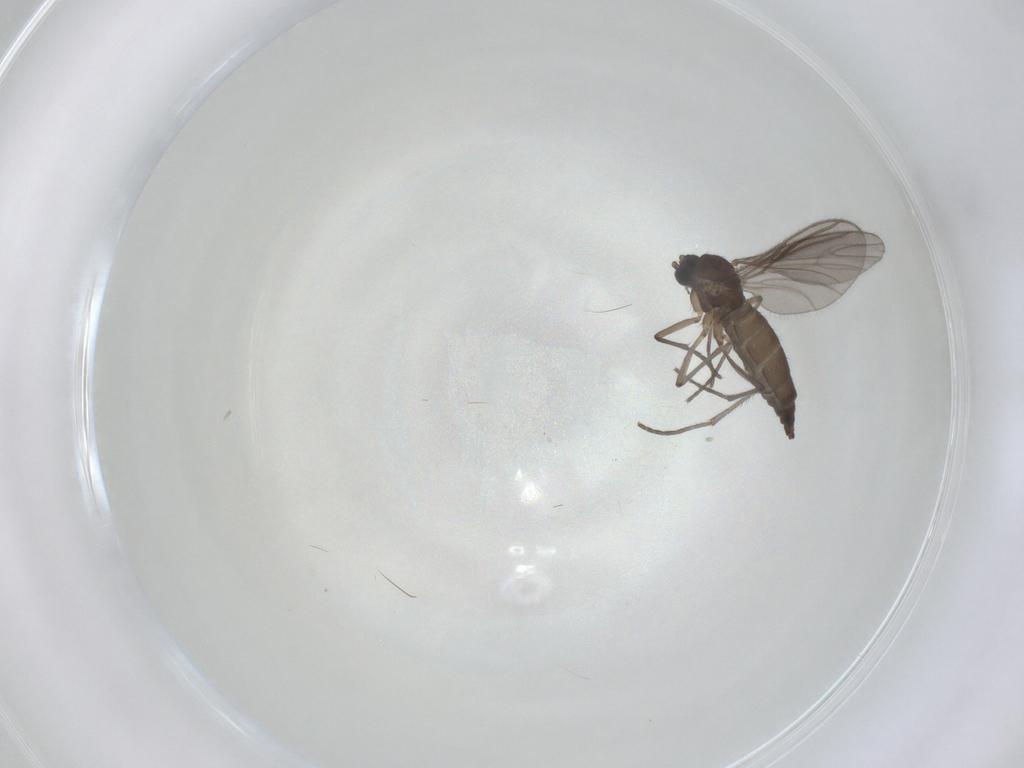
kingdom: Animalia
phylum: Arthropoda
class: Insecta
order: Diptera
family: Sciaridae
